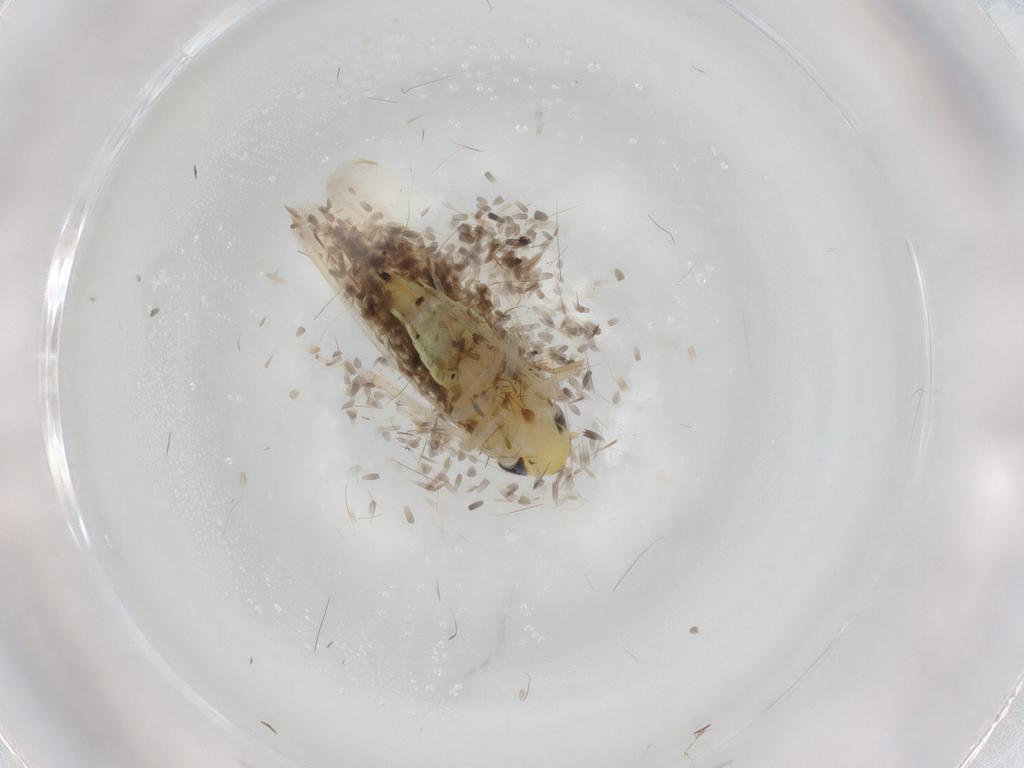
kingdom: Animalia
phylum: Arthropoda
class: Insecta
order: Hemiptera
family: Cicadellidae
